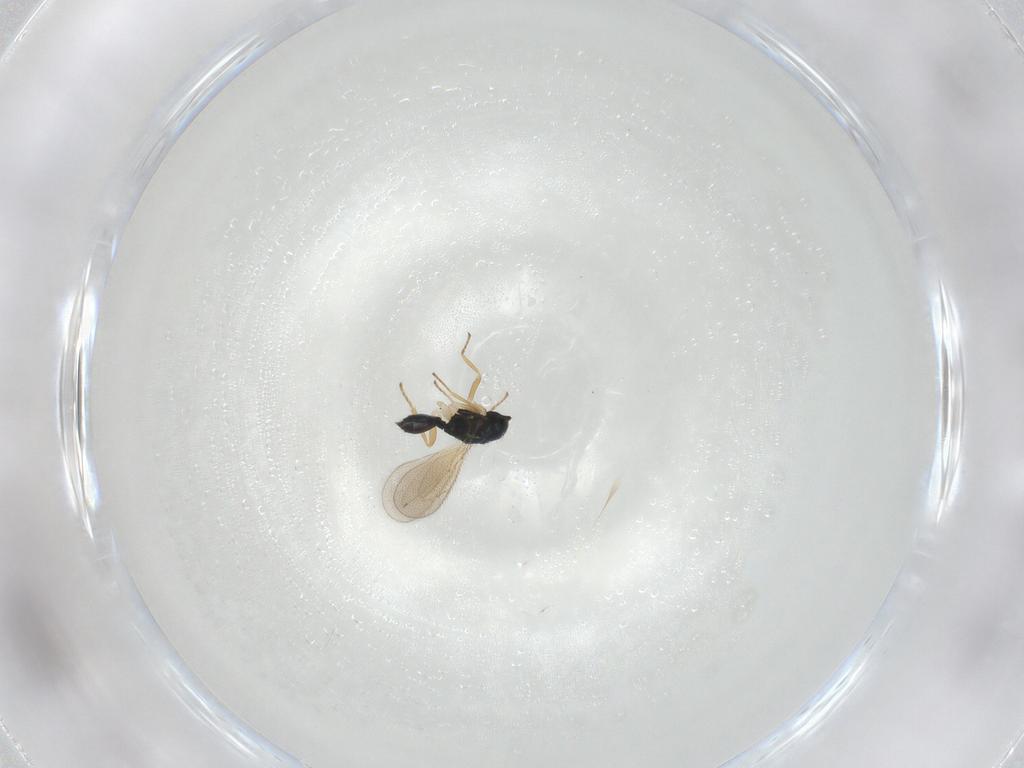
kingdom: Animalia
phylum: Arthropoda
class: Insecta
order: Hymenoptera
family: Eulophidae
